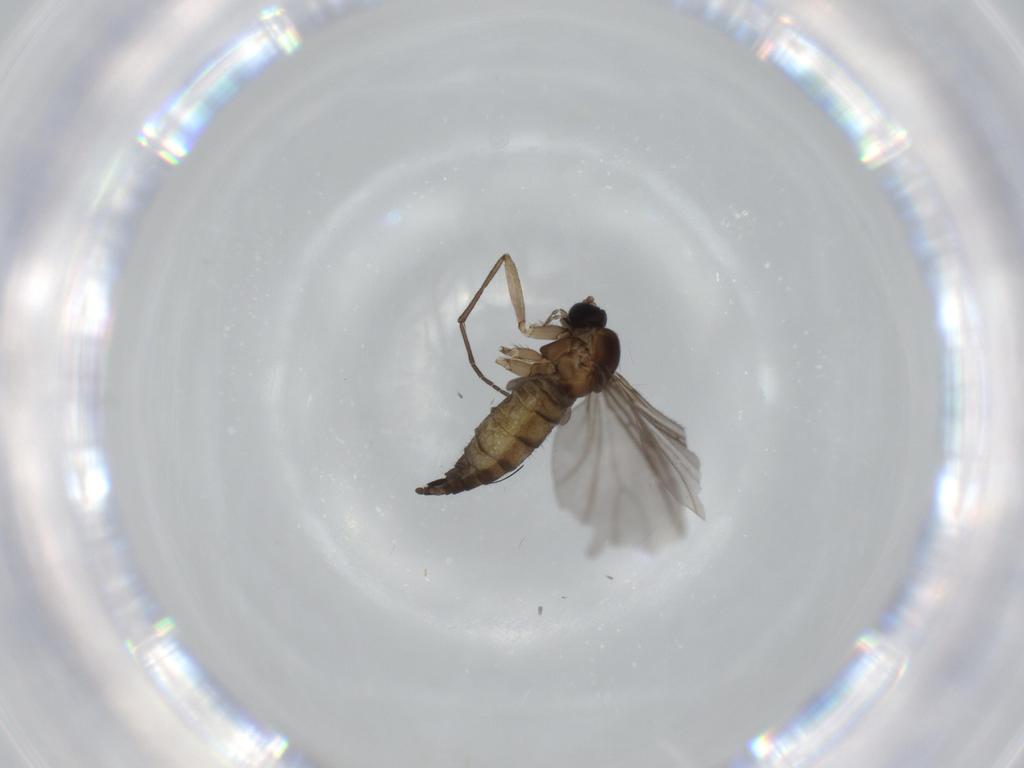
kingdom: Animalia
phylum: Arthropoda
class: Insecta
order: Diptera
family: Sciaridae
